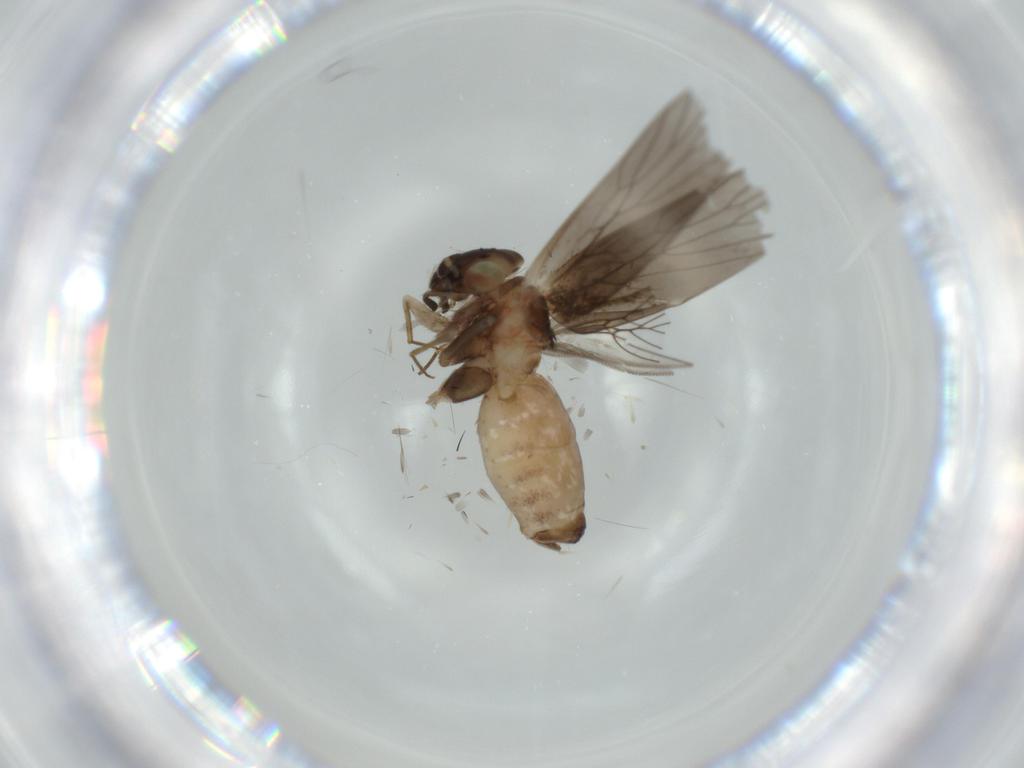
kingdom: Animalia
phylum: Arthropoda
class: Insecta
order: Psocodea
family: Lepidopsocidae
